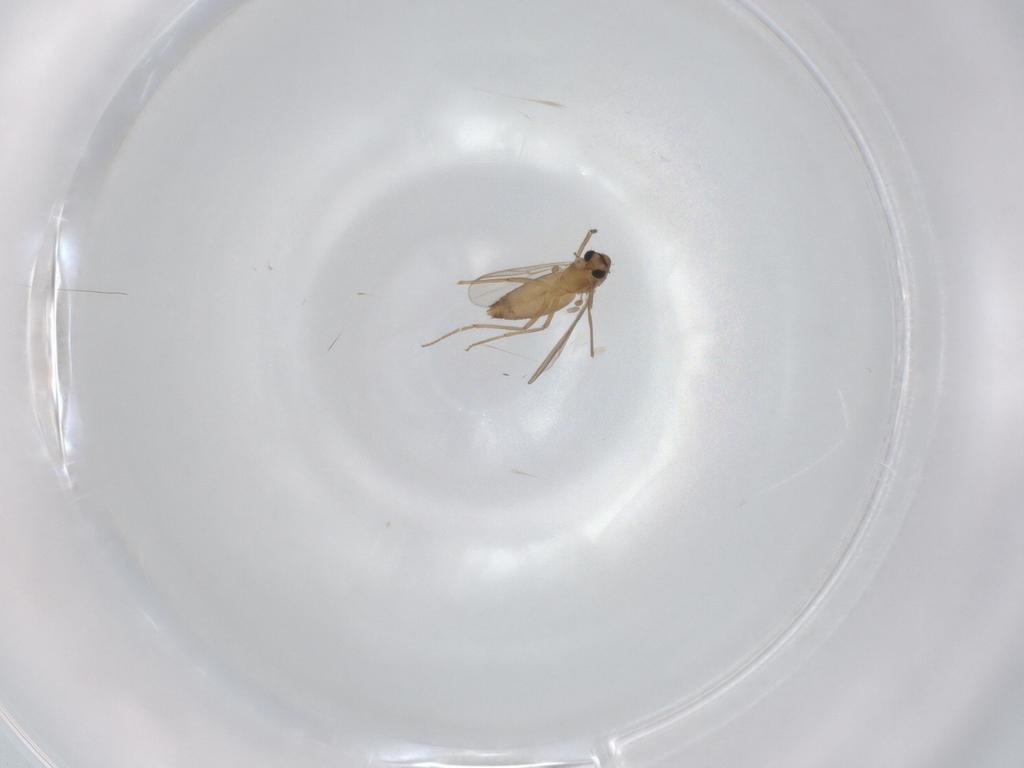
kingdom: Animalia
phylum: Arthropoda
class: Insecta
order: Diptera
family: Chironomidae
